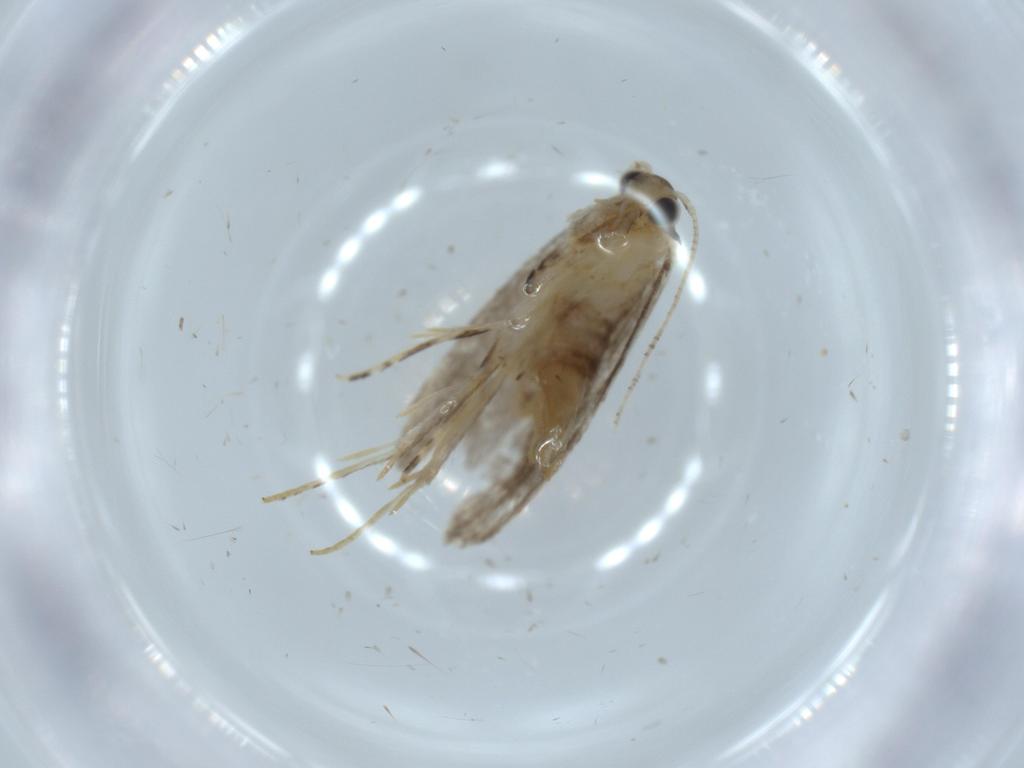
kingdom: Animalia
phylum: Arthropoda
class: Insecta
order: Lepidoptera
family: Tineidae
